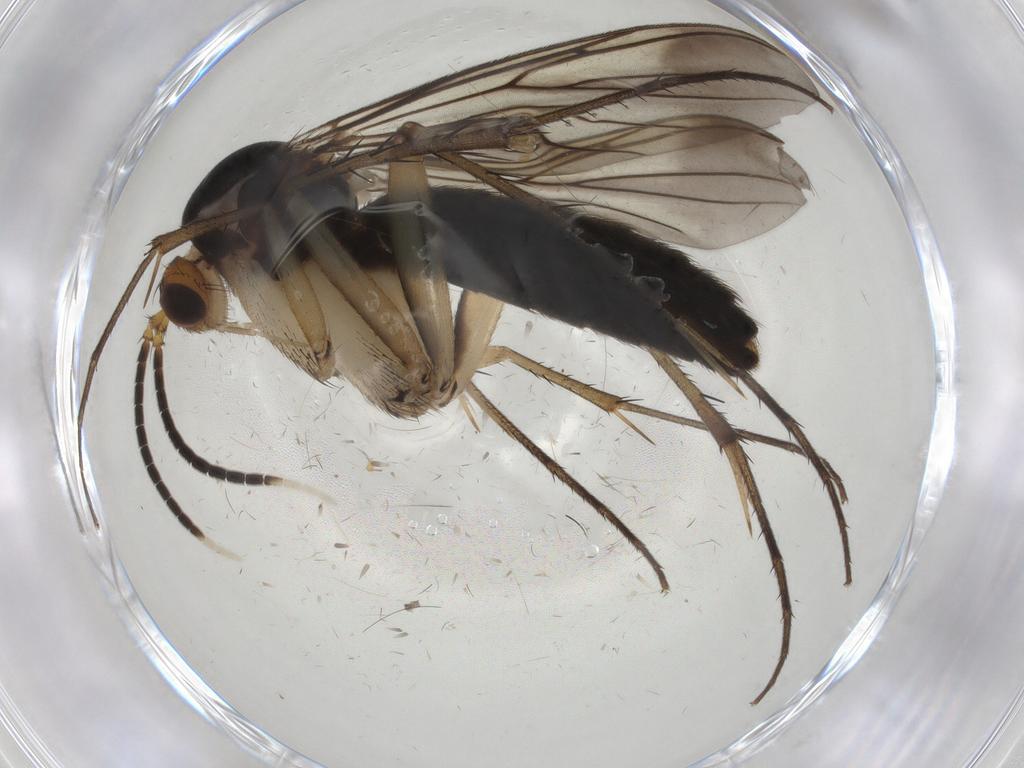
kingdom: Animalia
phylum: Arthropoda
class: Insecta
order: Diptera
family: Mycetophilidae
